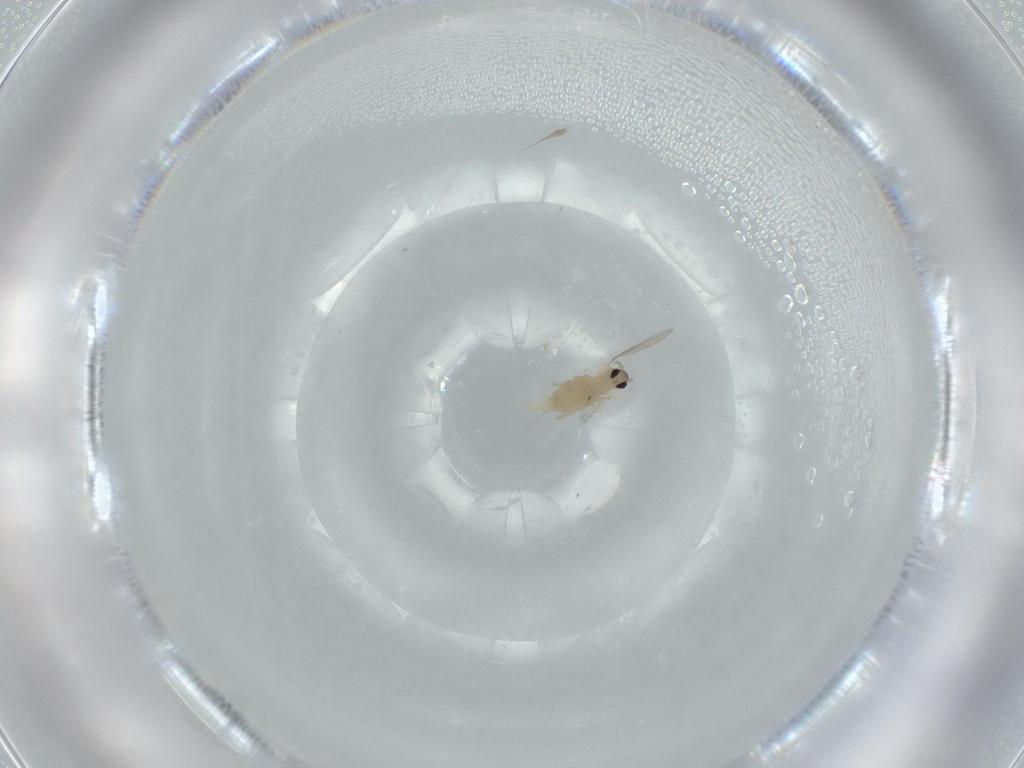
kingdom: Animalia
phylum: Arthropoda
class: Insecta
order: Diptera
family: Cecidomyiidae
